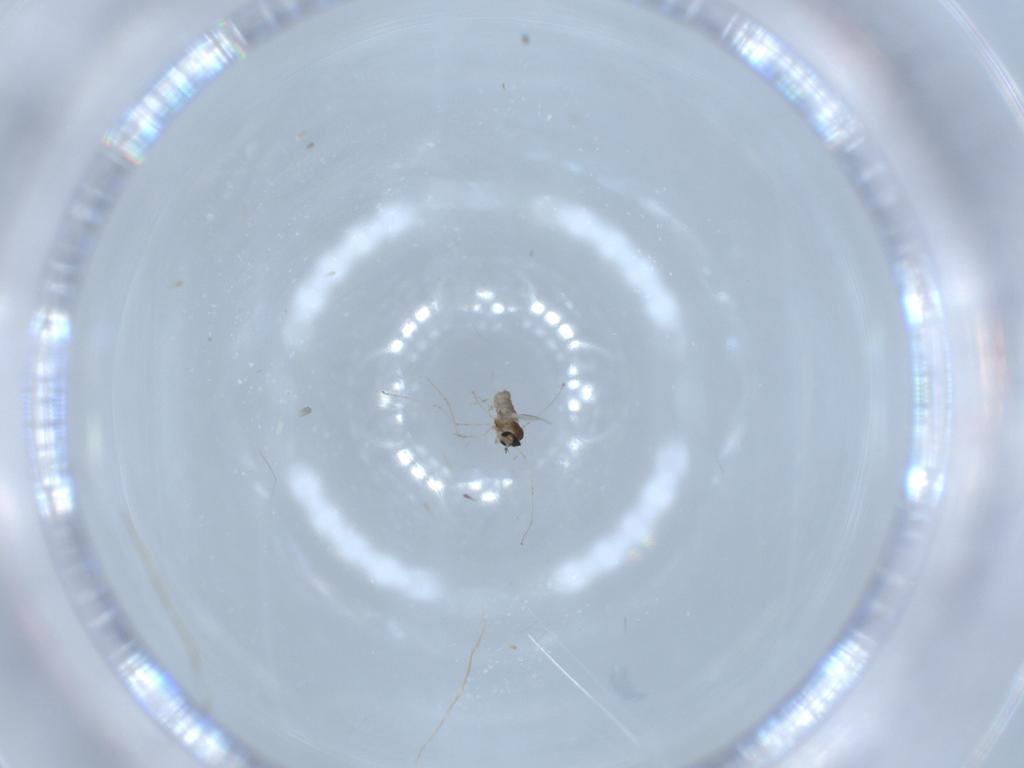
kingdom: Animalia
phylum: Arthropoda
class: Insecta
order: Diptera
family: Cecidomyiidae
